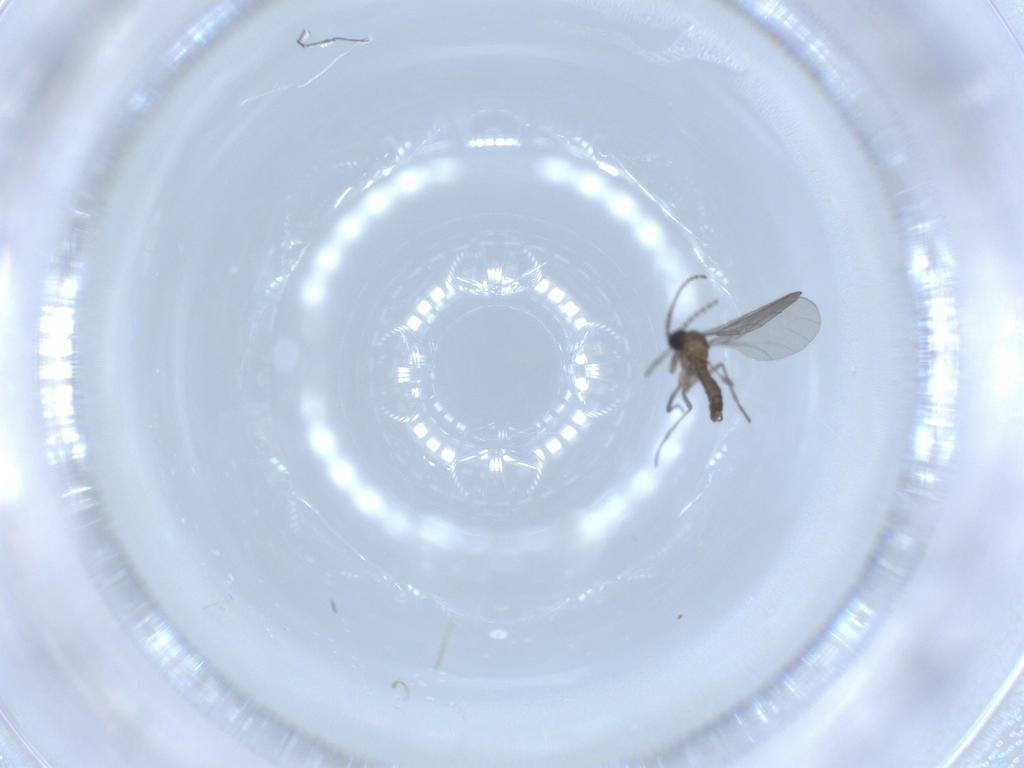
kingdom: Animalia
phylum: Arthropoda
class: Insecta
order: Diptera
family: Sciaridae
